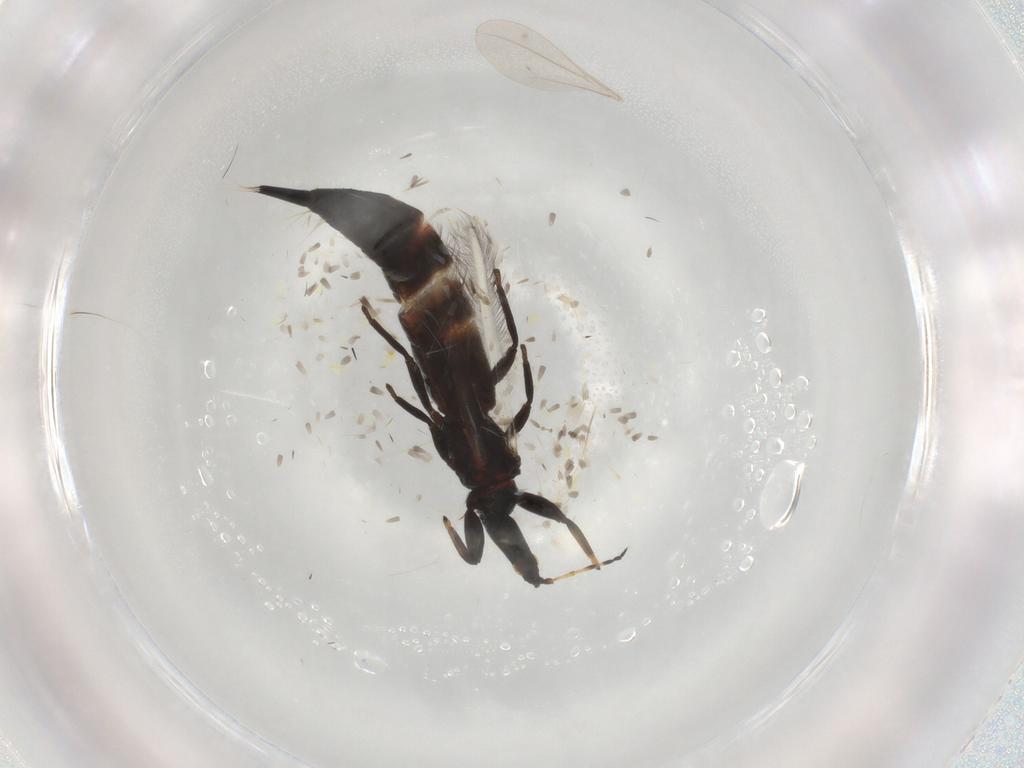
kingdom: Animalia
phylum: Arthropoda
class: Insecta
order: Thysanoptera
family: Phlaeothripidae
